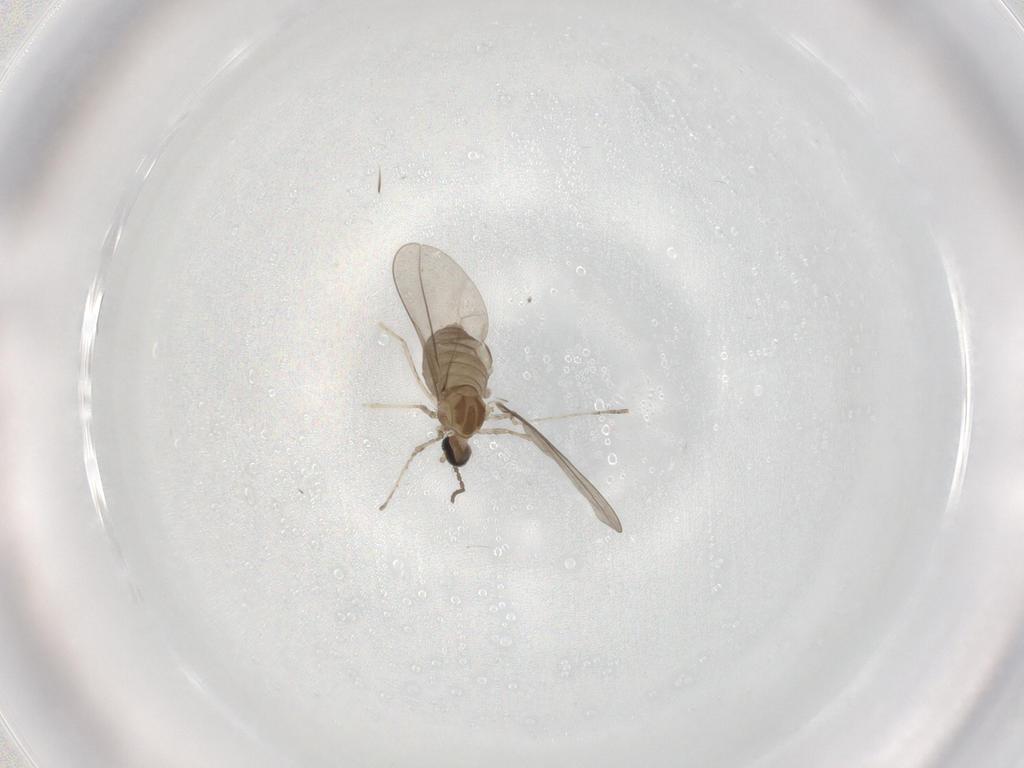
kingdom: Animalia
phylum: Arthropoda
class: Insecta
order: Diptera
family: Cecidomyiidae
